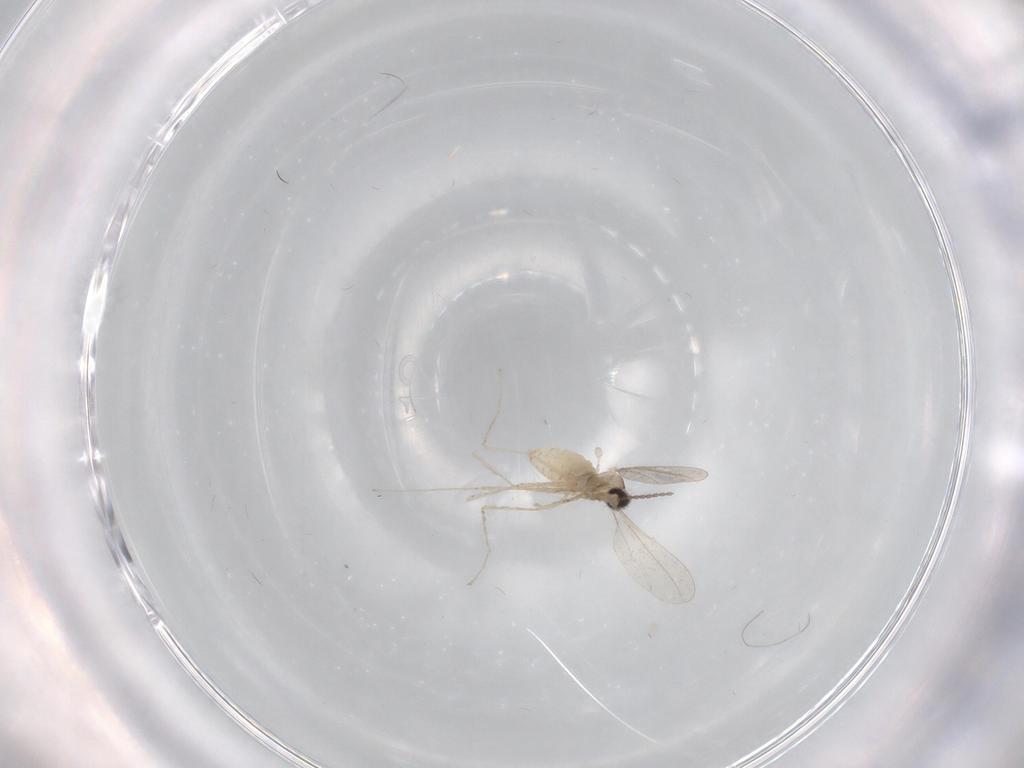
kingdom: Animalia
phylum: Arthropoda
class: Insecta
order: Diptera
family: Cecidomyiidae
